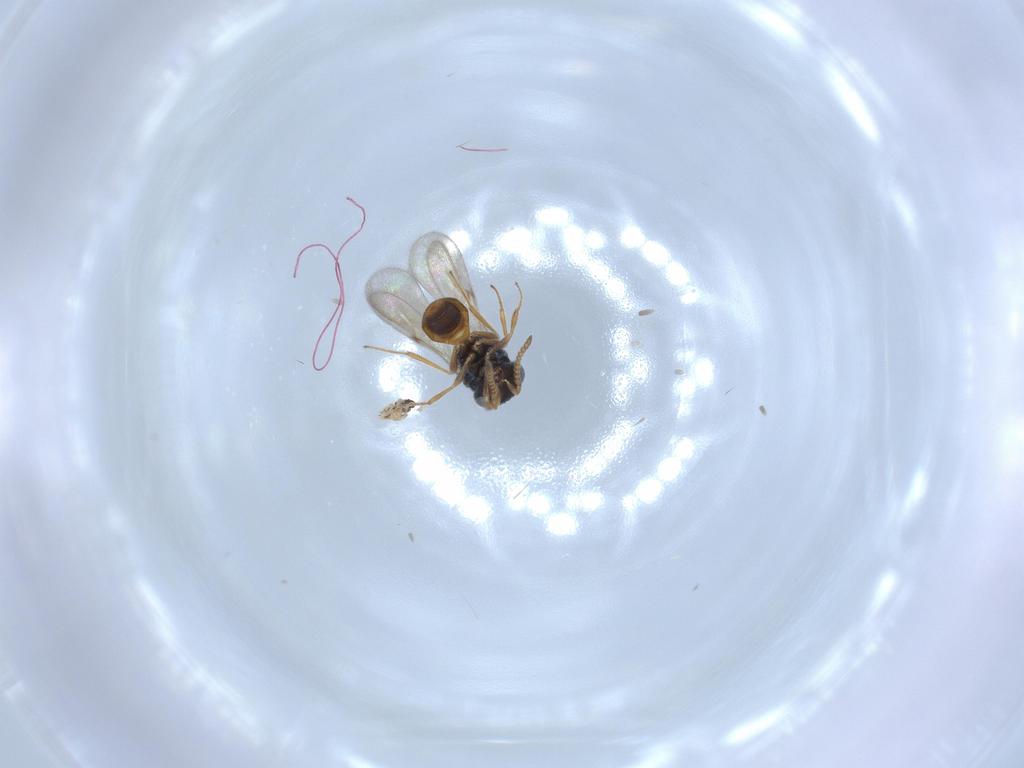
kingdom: Animalia
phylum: Arthropoda
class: Insecta
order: Hymenoptera
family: Scelionidae
